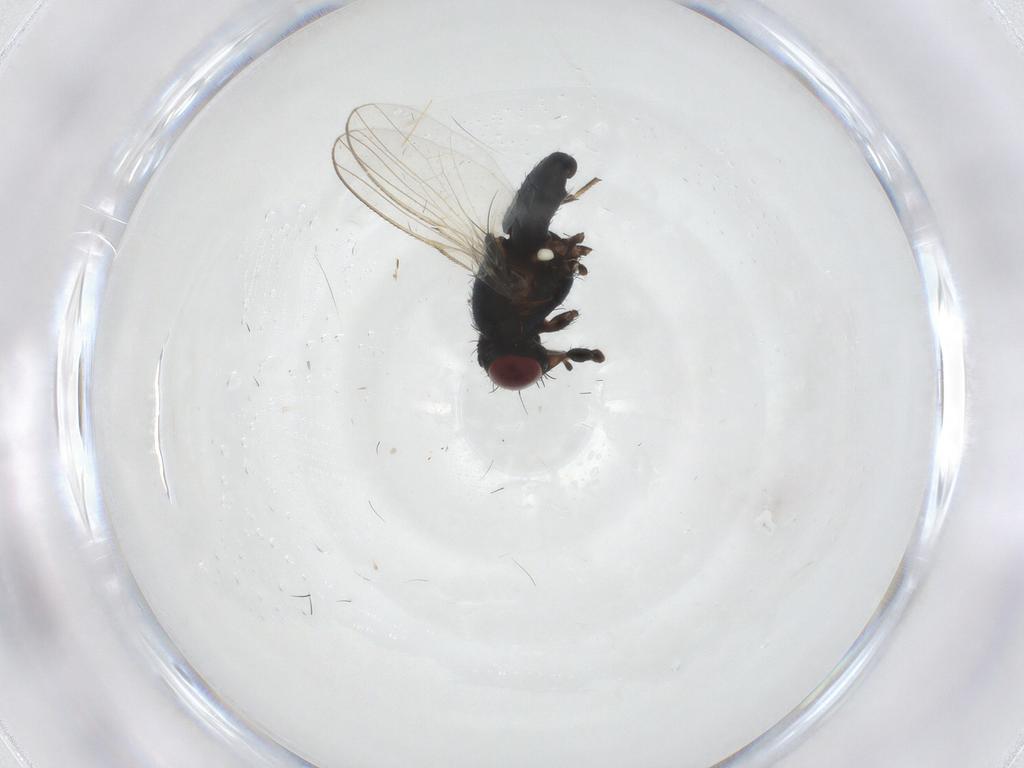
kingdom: Animalia
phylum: Arthropoda
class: Insecta
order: Diptera
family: Carnidae
